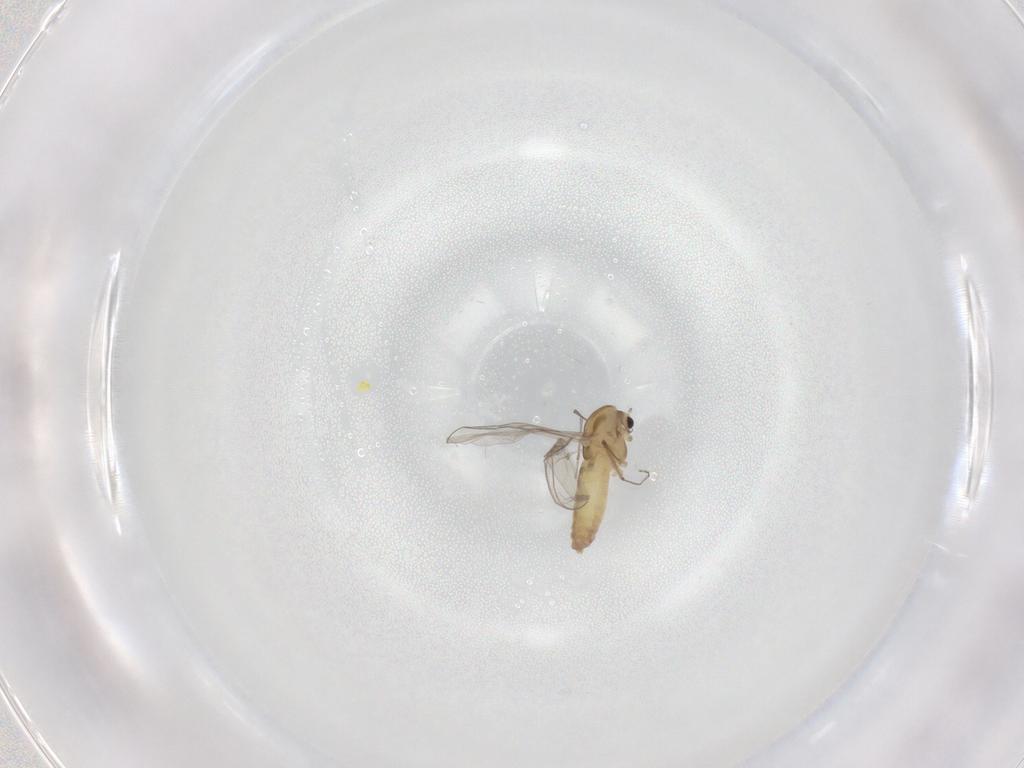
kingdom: Animalia
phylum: Arthropoda
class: Insecta
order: Diptera
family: Chironomidae
